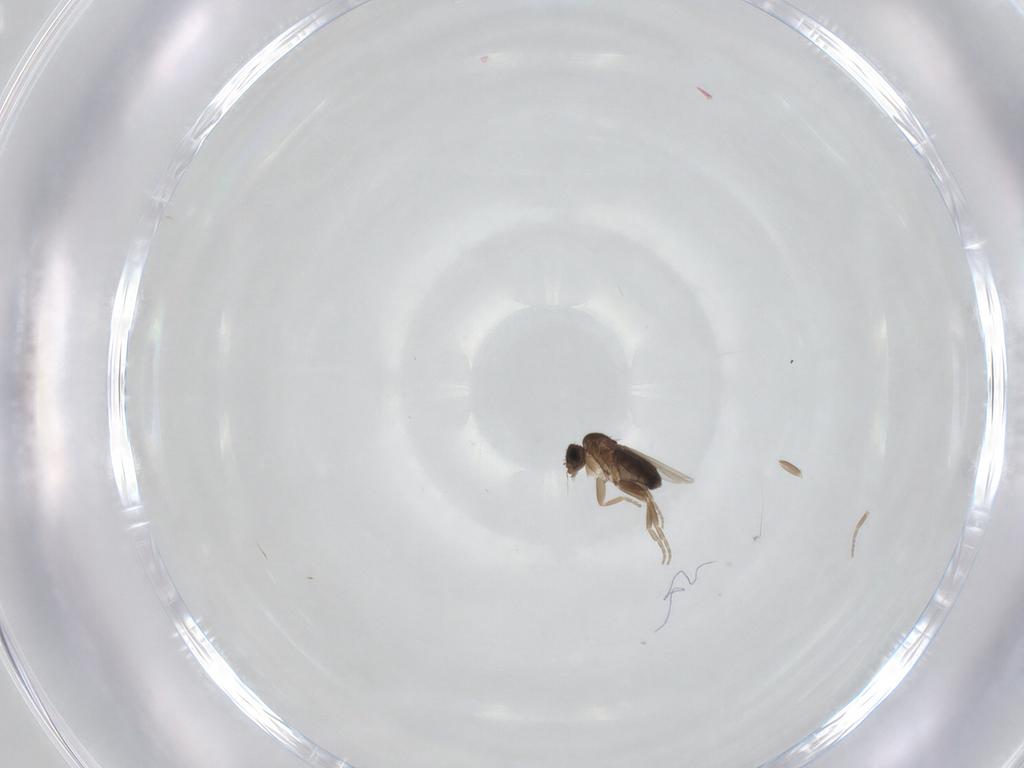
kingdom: Animalia
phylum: Arthropoda
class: Insecta
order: Diptera
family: Phoridae
